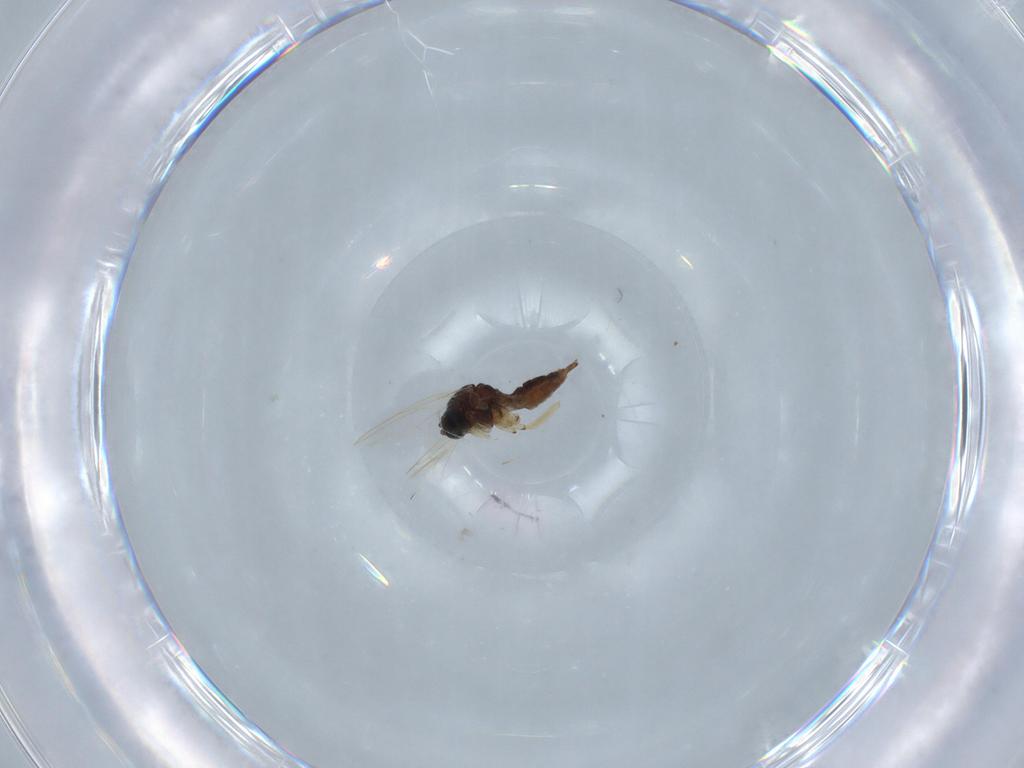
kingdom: Animalia
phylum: Arthropoda
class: Insecta
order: Diptera
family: Sciaridae
